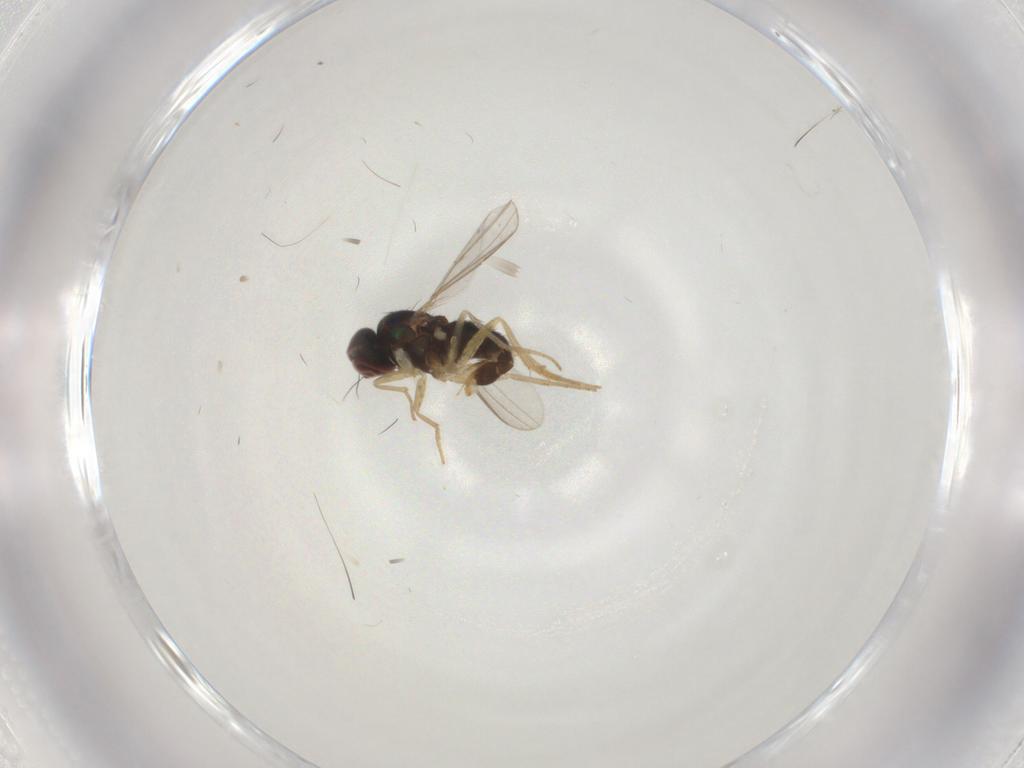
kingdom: Animalia
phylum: Arthropoda
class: Insecta
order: Diptera
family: Dolichopodidae
